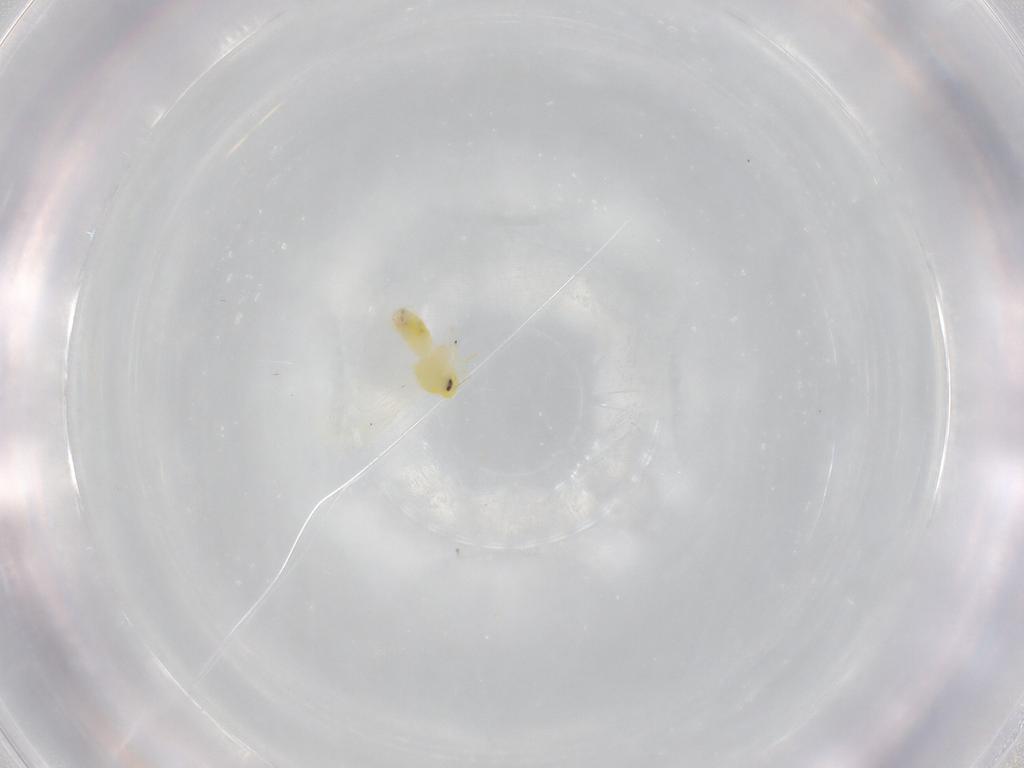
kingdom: Animalia
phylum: Arthropoda
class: Insecta
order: Hemiptera
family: Aleyrodidae
